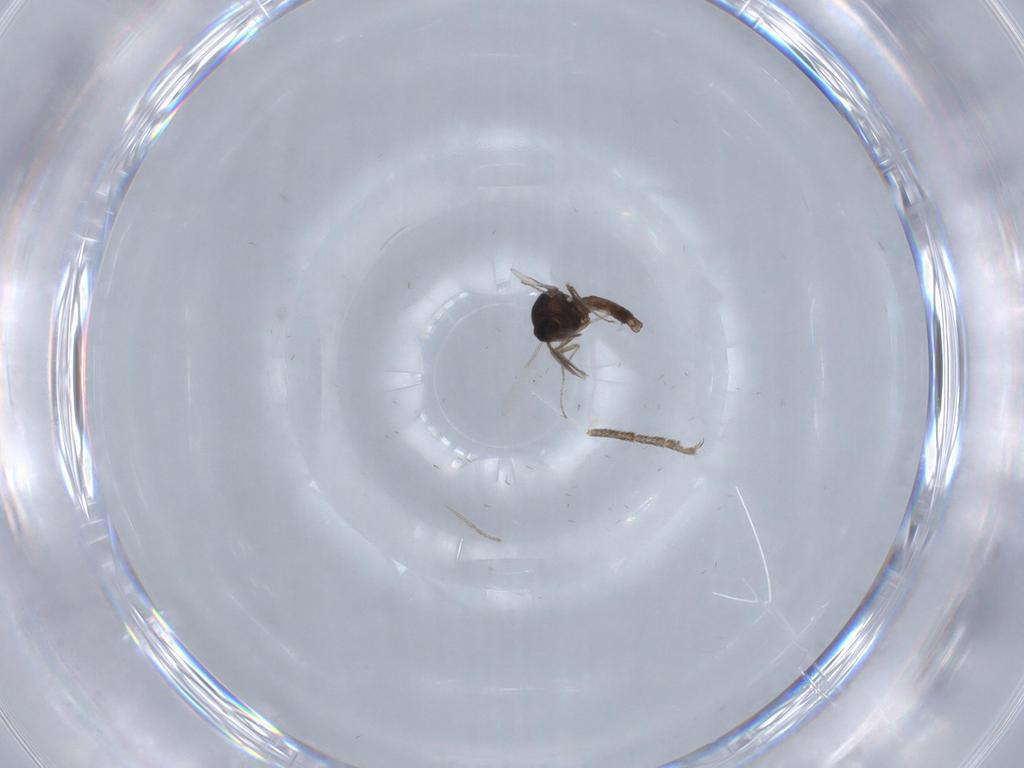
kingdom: Animalia
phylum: Arthropoda
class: Insecta
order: Diptera
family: Ceratopogonidae
